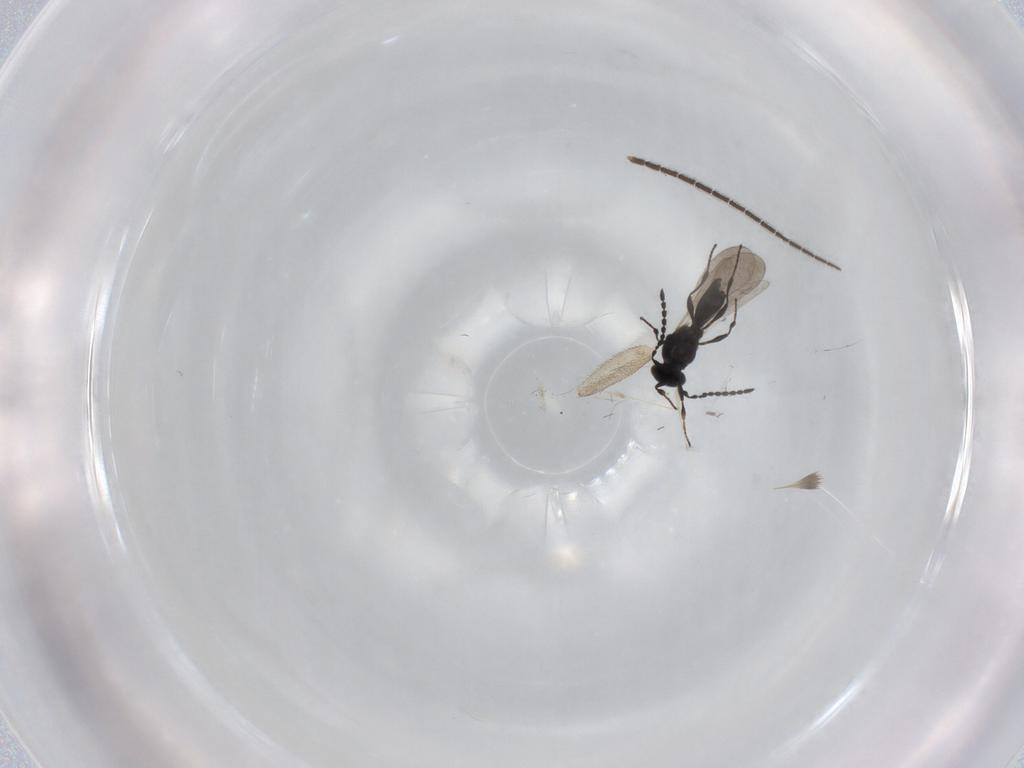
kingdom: Animalia
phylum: Arthropoda
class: Insecta
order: Hymenoptera
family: Platygastridae
